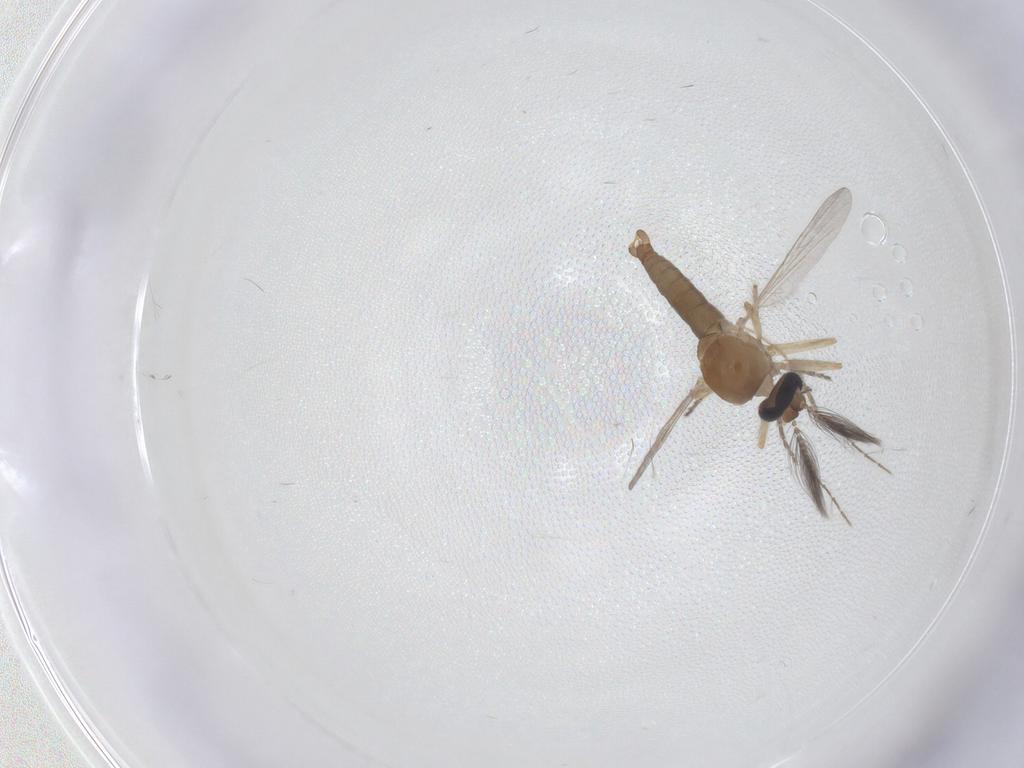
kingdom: Animalia
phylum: Arthropoda
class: Insecta
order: Diptera
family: Ceratopogonidae
